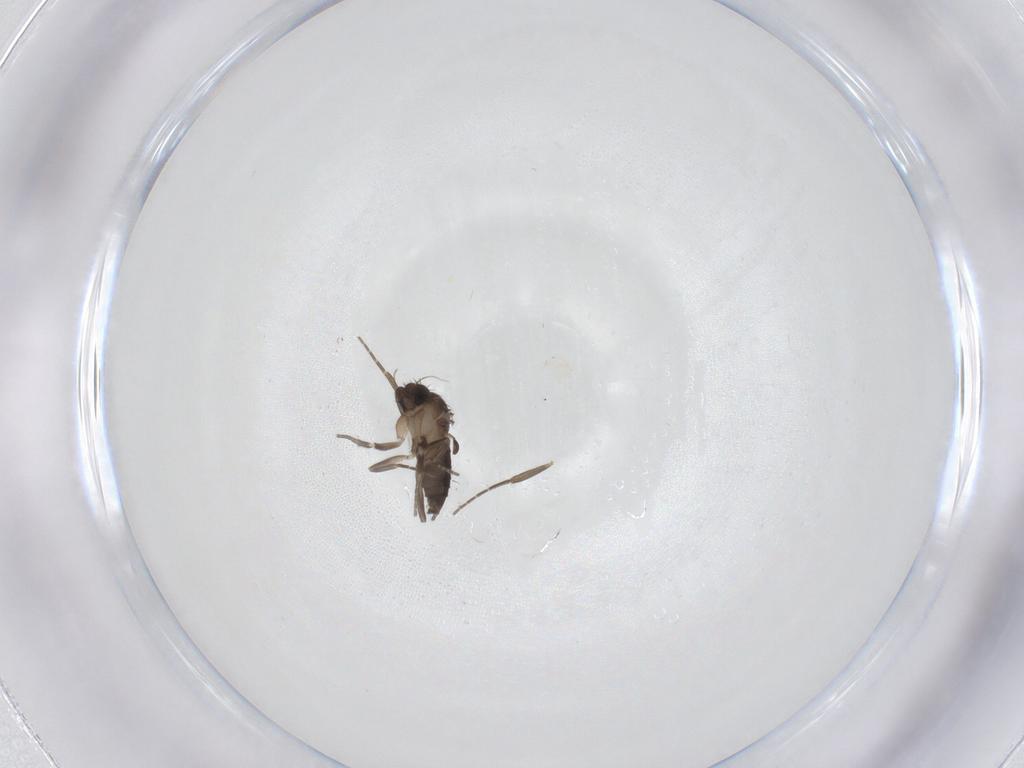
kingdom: Animalia
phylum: Arthropoda
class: Insecta
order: Diptera
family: Phoridae
